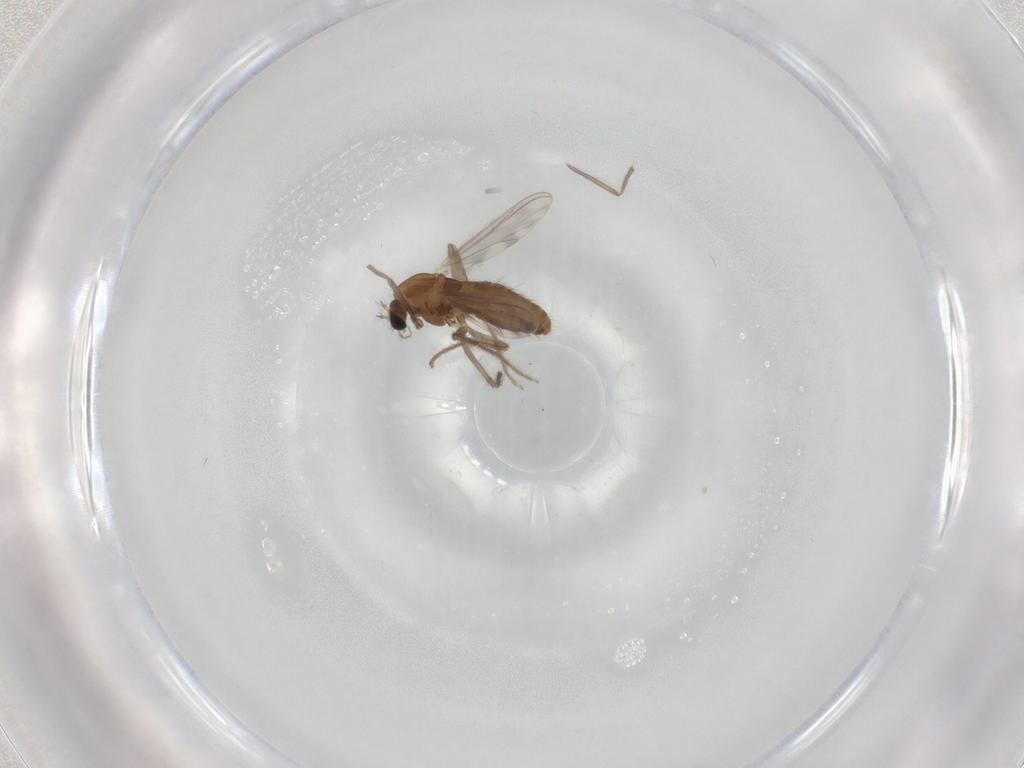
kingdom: Animalia
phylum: Arthropoda
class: Insecta
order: Diptera
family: Chironomidae
